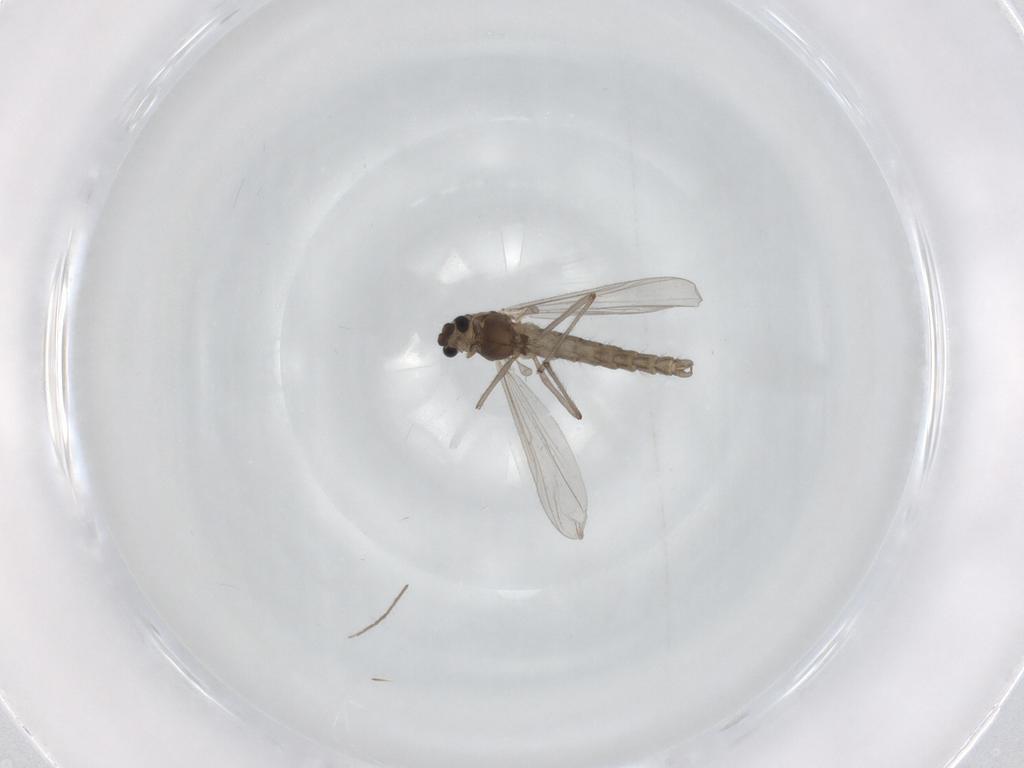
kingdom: Animalia
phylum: Arthropoda
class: Insecta
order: Diptera
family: Chironomidae
